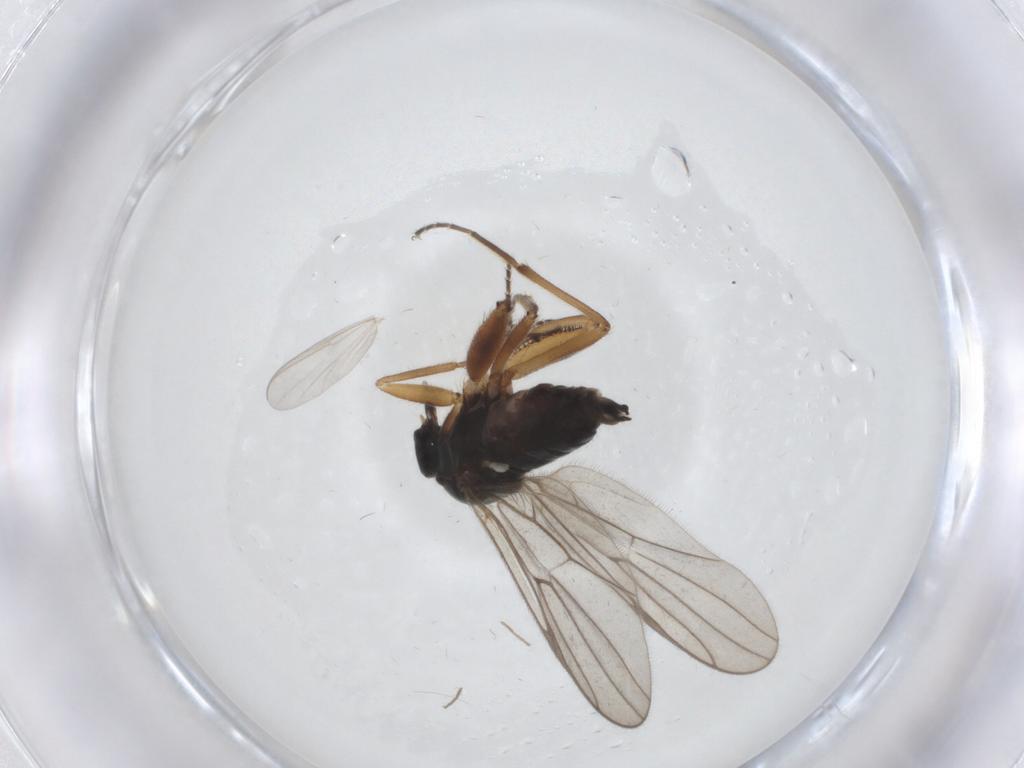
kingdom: Animalia
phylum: Arthropoda
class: Insecta
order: Diptera
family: Hybotidae
